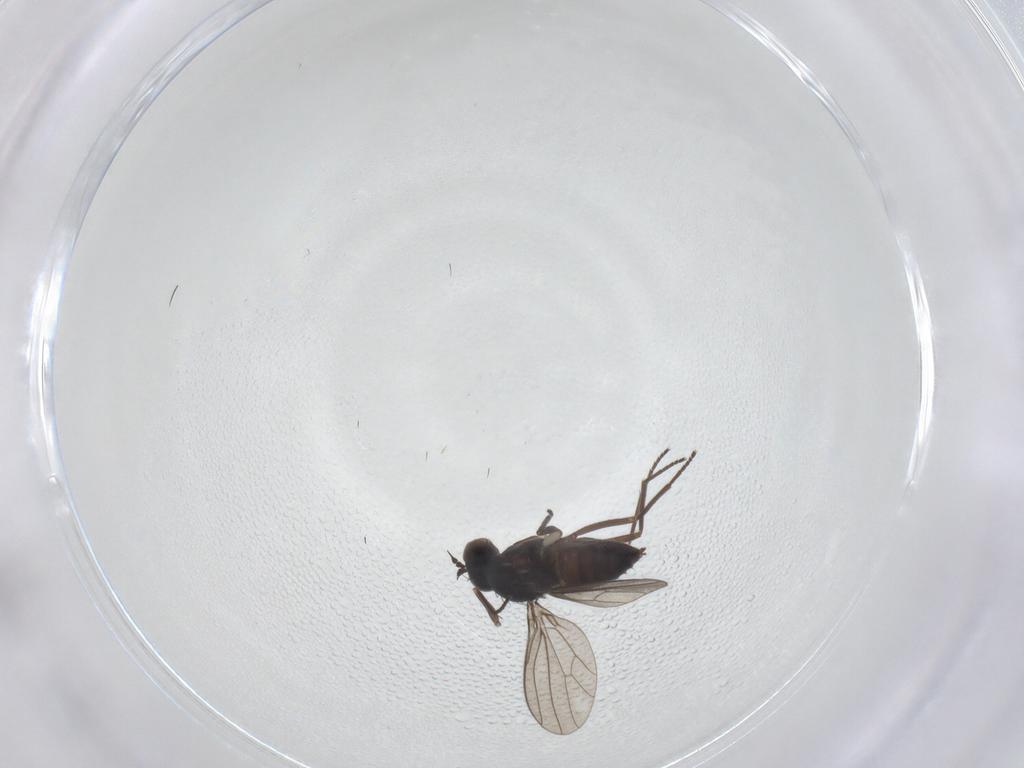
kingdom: Animalia
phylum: Arthropoda
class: Insecta
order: Diptera
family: Dolichopodidae
